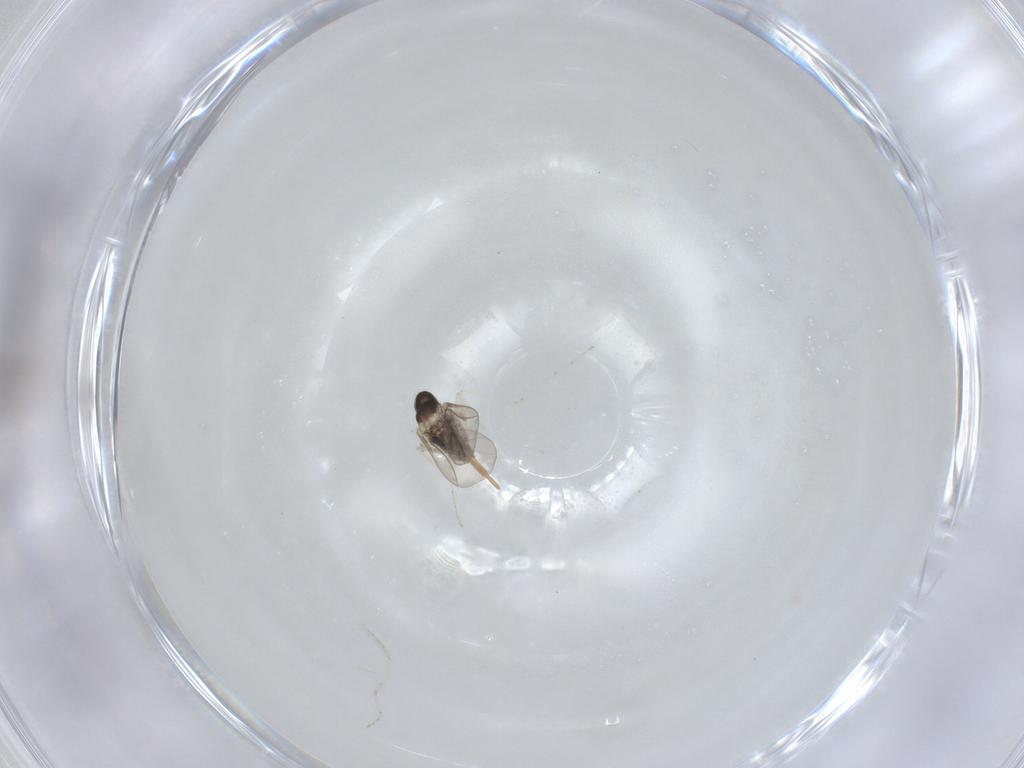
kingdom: Animalia
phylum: Arthropoda
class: Insecta
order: Diptera
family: Cecidomyiidae
